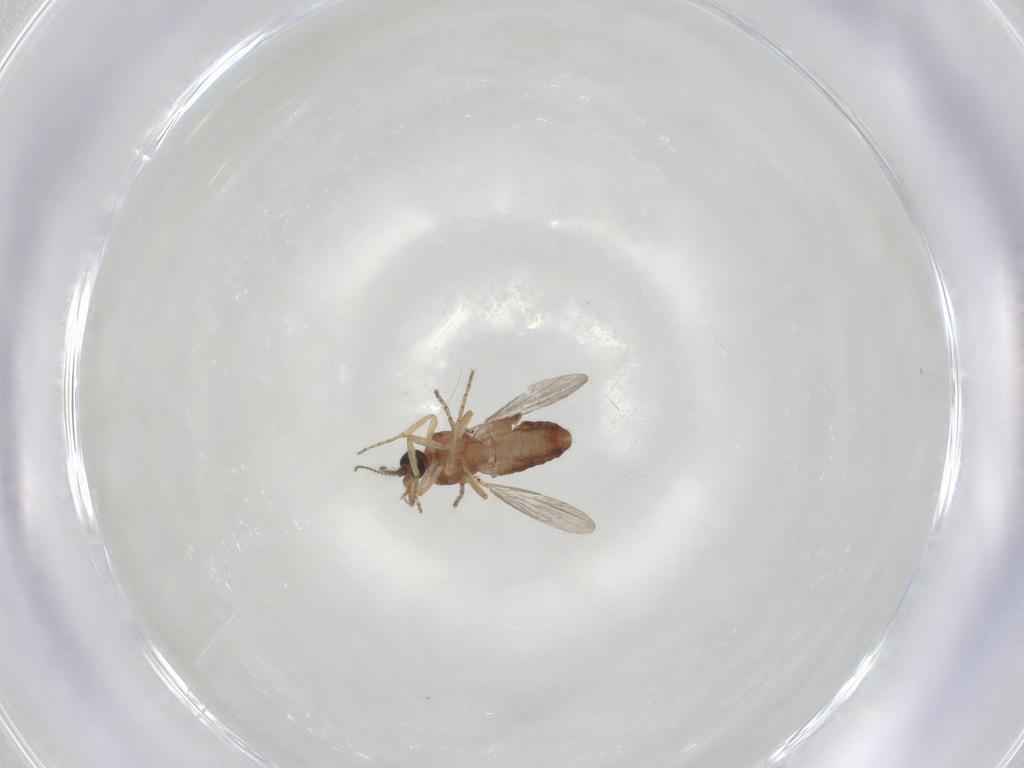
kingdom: Animalia
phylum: Arthropoda
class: Insecta
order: Diptera
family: Ceratopogonidae
